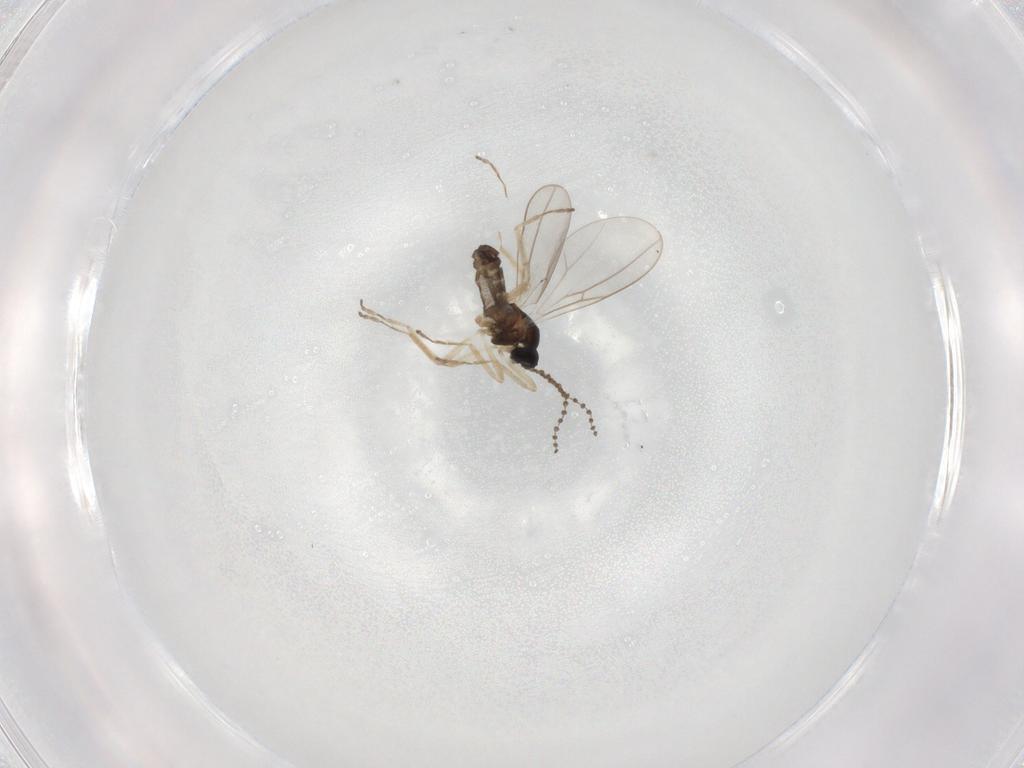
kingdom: Animalia
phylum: Arthropoda
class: Insecta
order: Diptera
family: Cecidomyiidae
